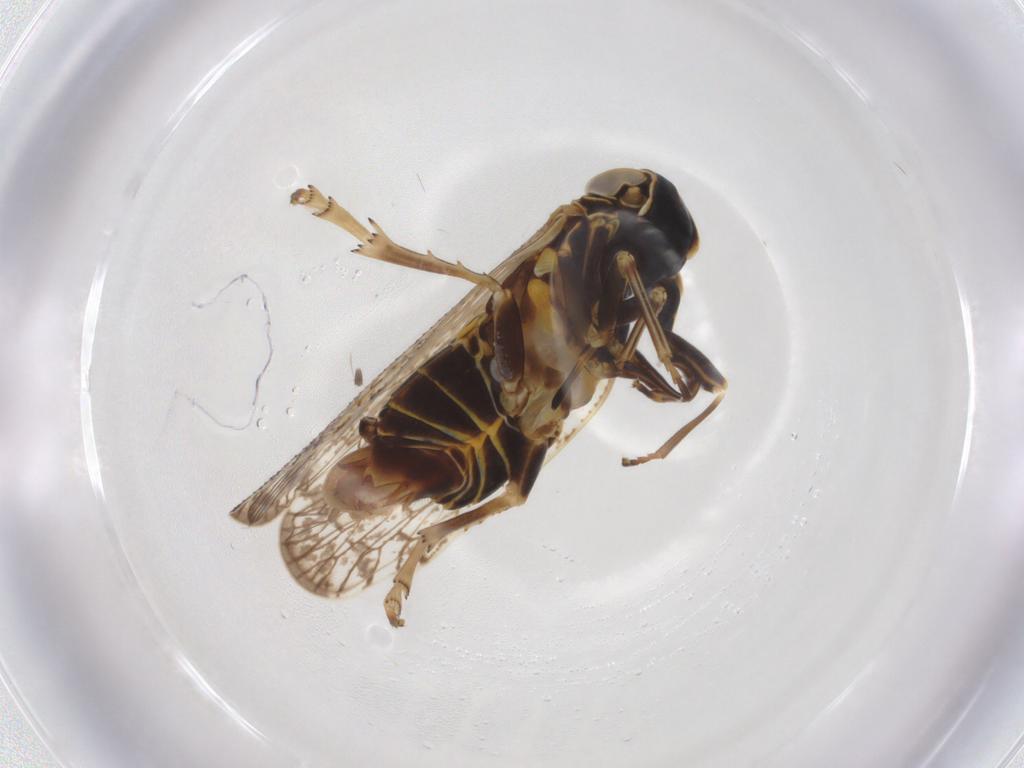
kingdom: Animalia
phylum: Arthropoda
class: Insecta
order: Hemiptera
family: Cixiidae
